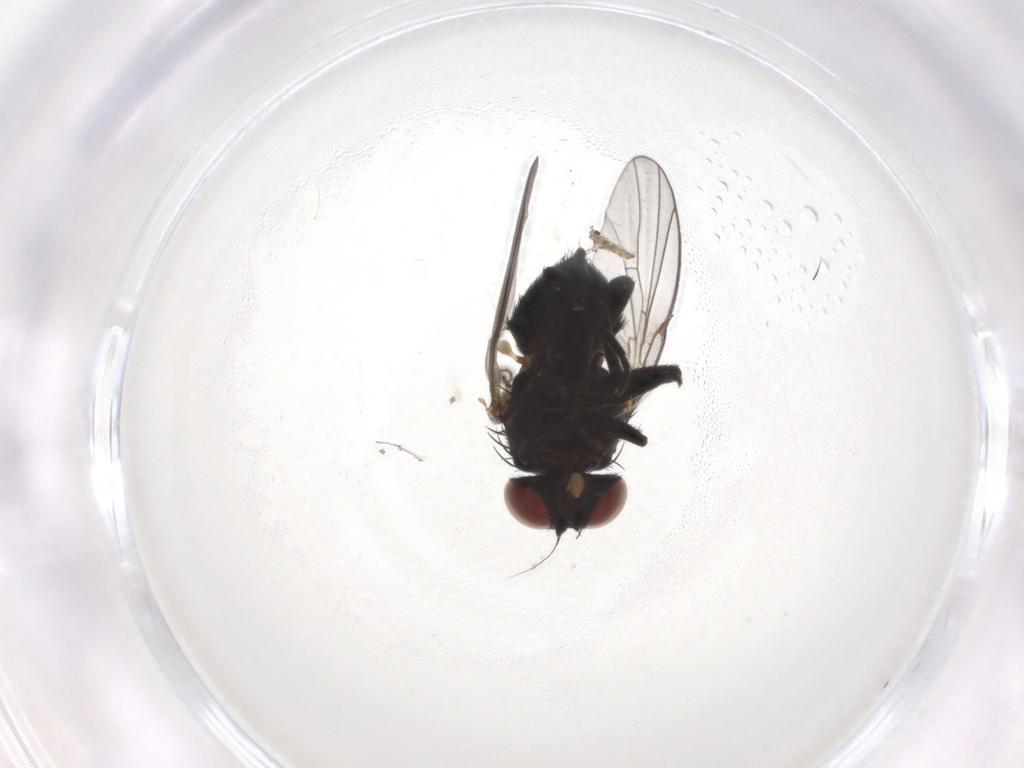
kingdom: Animalia
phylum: Arthropoda
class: Insecta
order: Diptera
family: Agromyzidae
